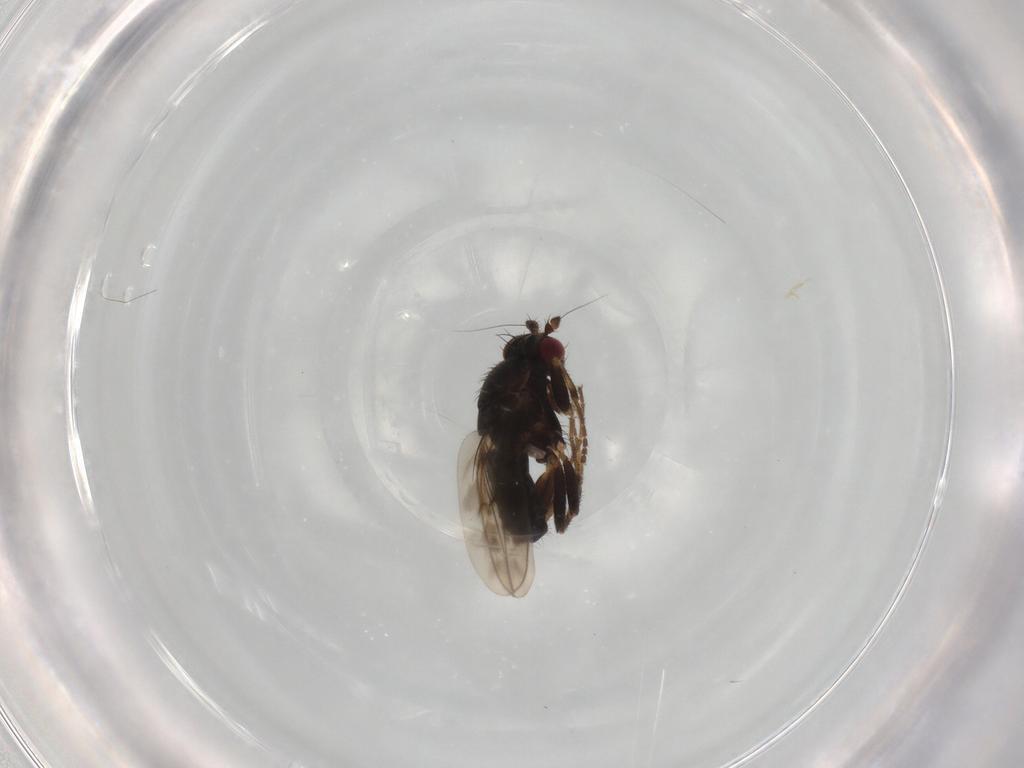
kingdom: Animalia
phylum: Arthropoda
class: Insecta
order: Diptera
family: Sphaeroceridae
